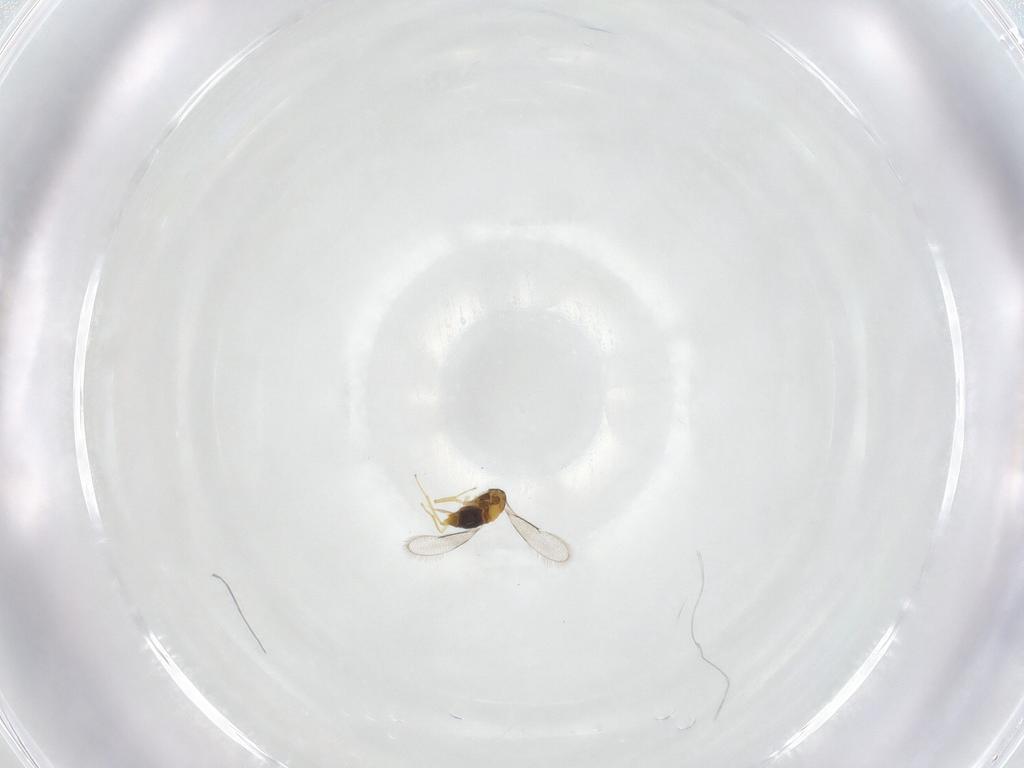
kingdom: Animalia
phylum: Arthropoda
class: Insecta
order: Hymenoptera
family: Aphelinidae
